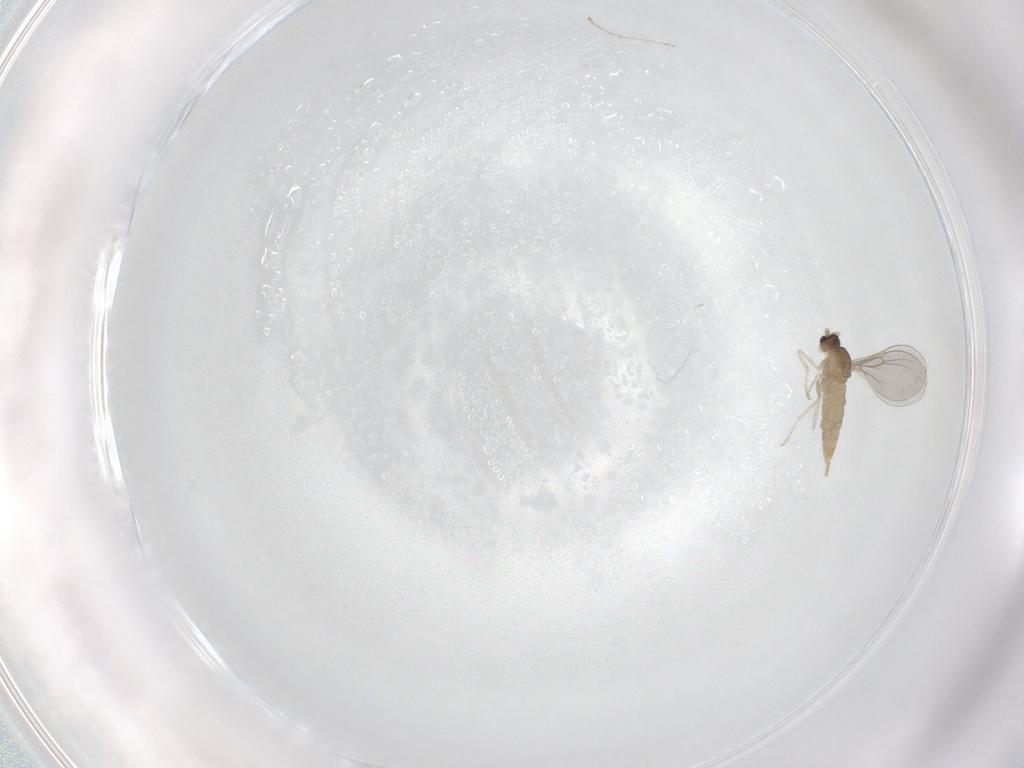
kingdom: Animalia
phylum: Arthropoda
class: Insecta
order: Diptera
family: Cecidomyiidae
